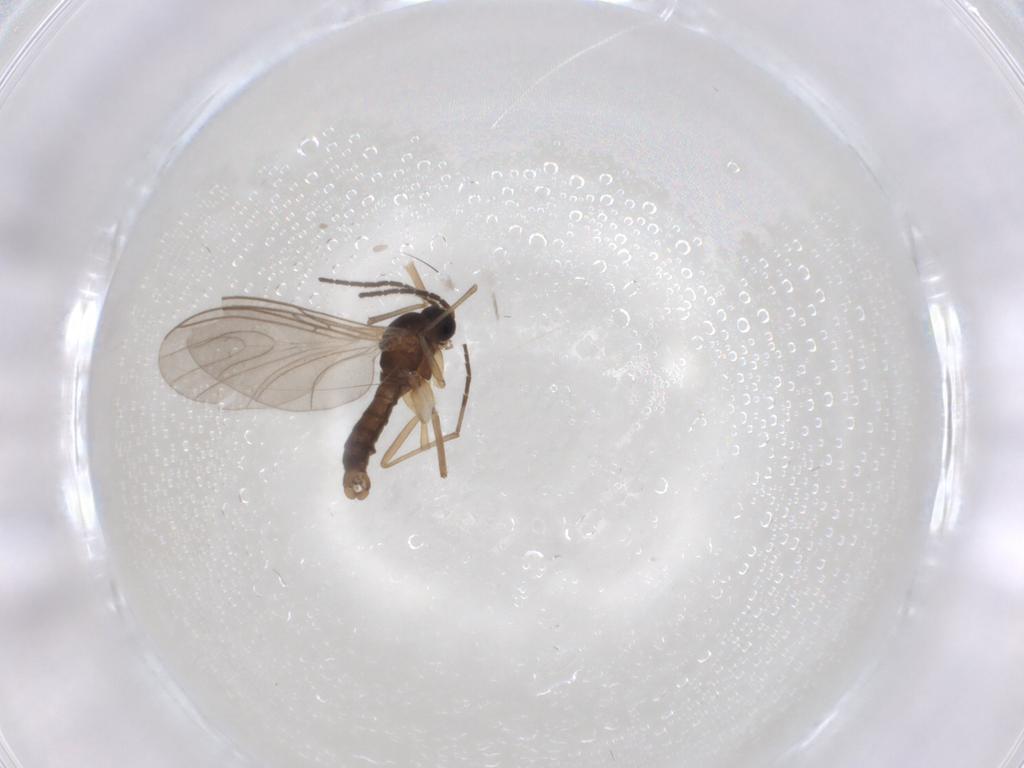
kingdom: Animalia
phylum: Arthropoda
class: Insecta
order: Diptera
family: Sciaridae
